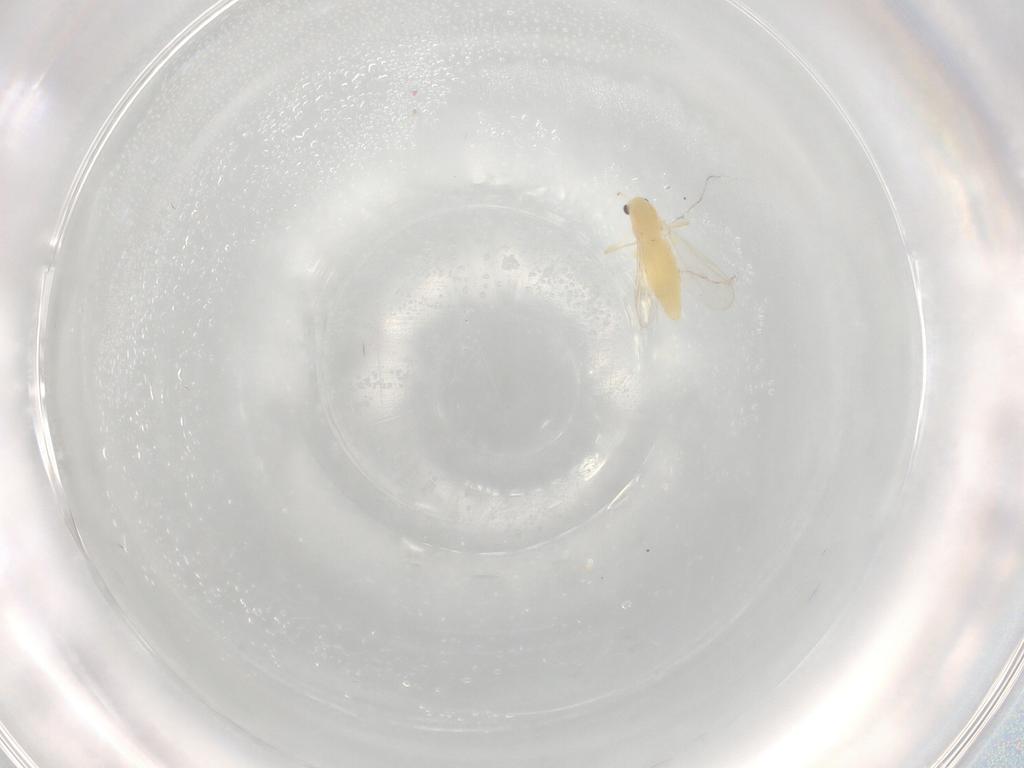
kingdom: Animalia
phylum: Arthropoda
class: Insecta
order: Diptera
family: Chironomidae
